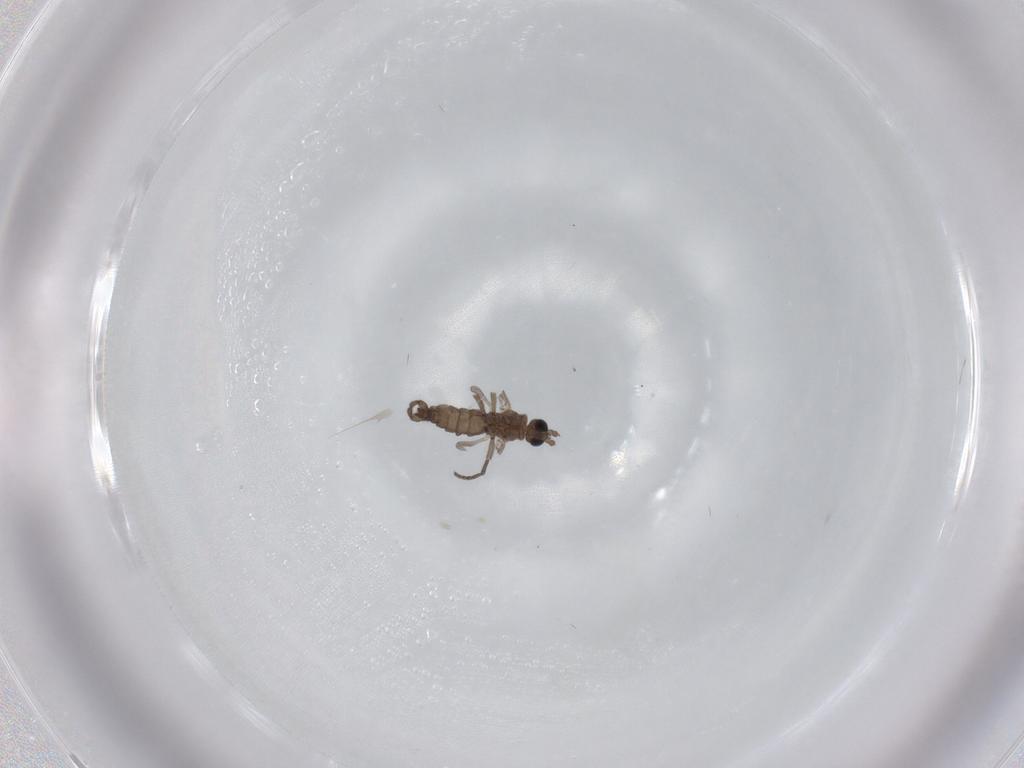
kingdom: Animalia
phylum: Arthropoda
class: Insecta
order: Diptera
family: Sciaridae
